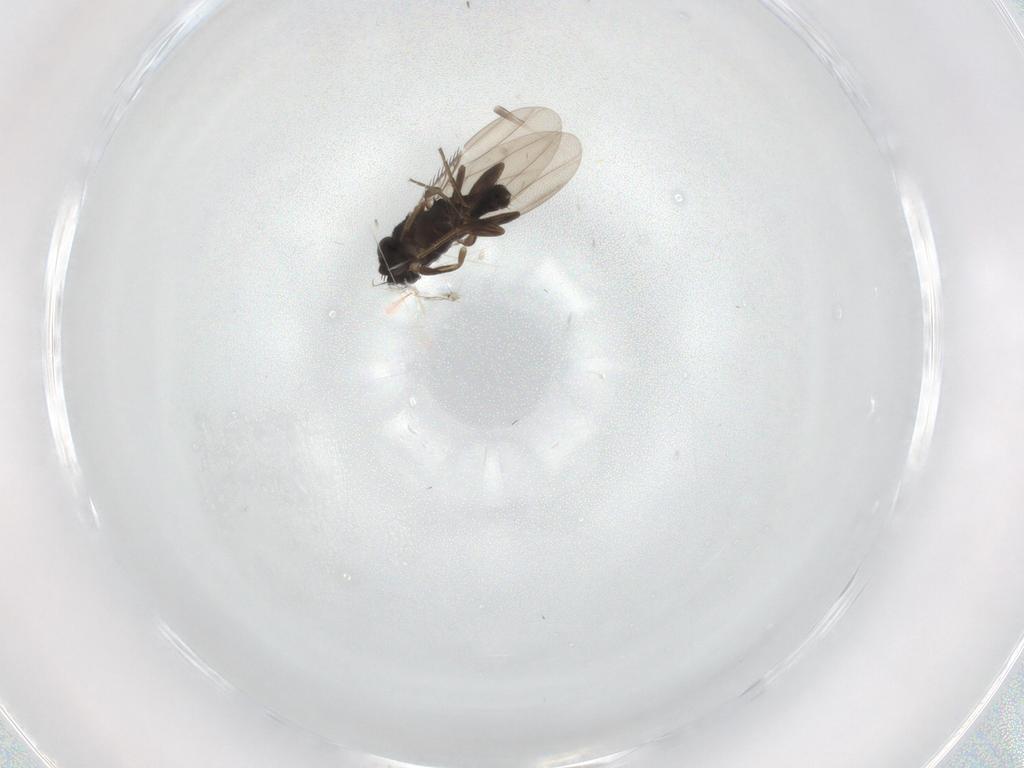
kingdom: Animalia
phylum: Arthropoda
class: Insecta
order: Diptera
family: Phoridae
